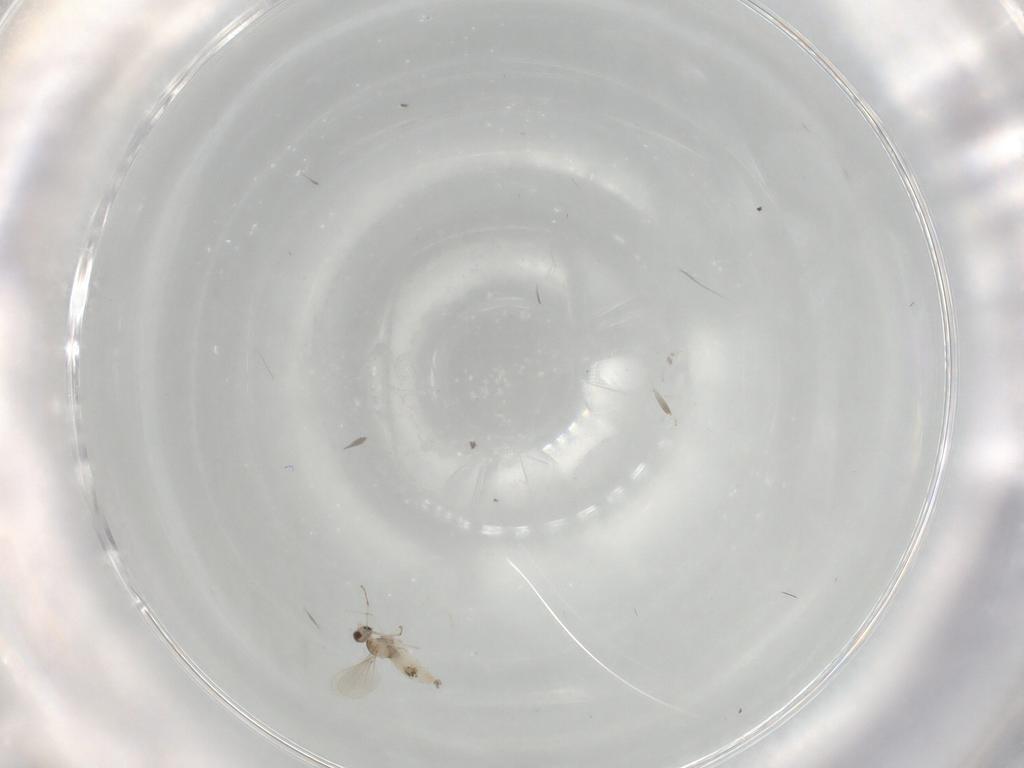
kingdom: Animalia
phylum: Arthropoda
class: Insecta
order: Diptera
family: Cecidomyiidae
